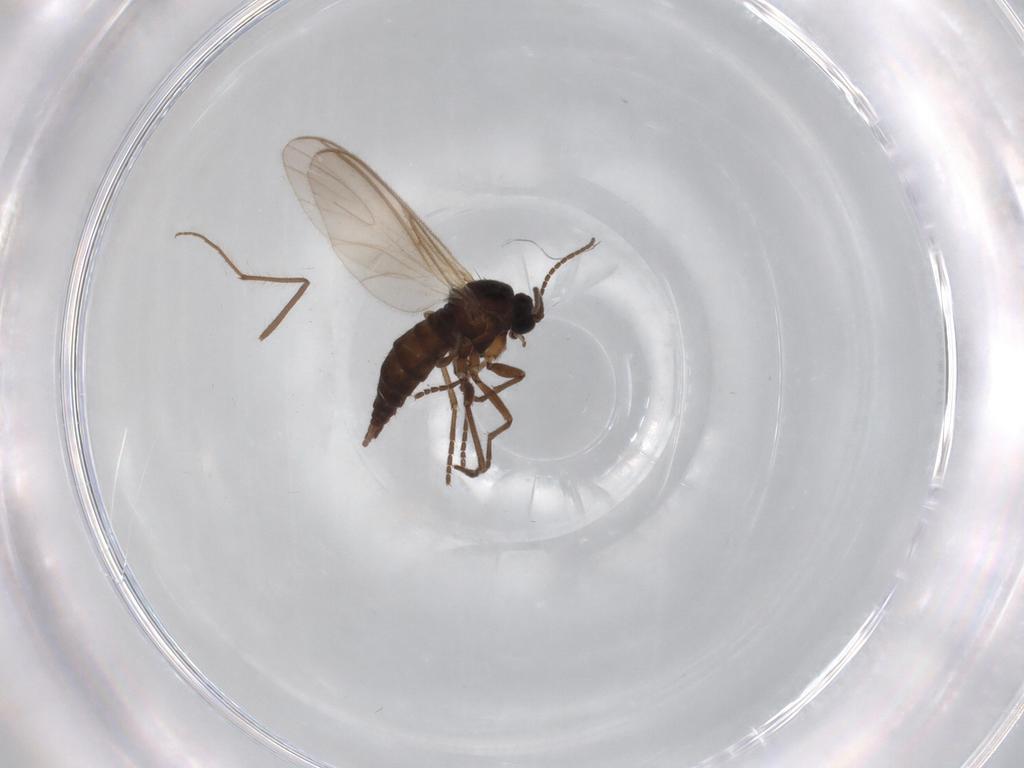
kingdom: Animalia
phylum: Arthropoda
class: Insecta
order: Diptera
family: Sciaridae
